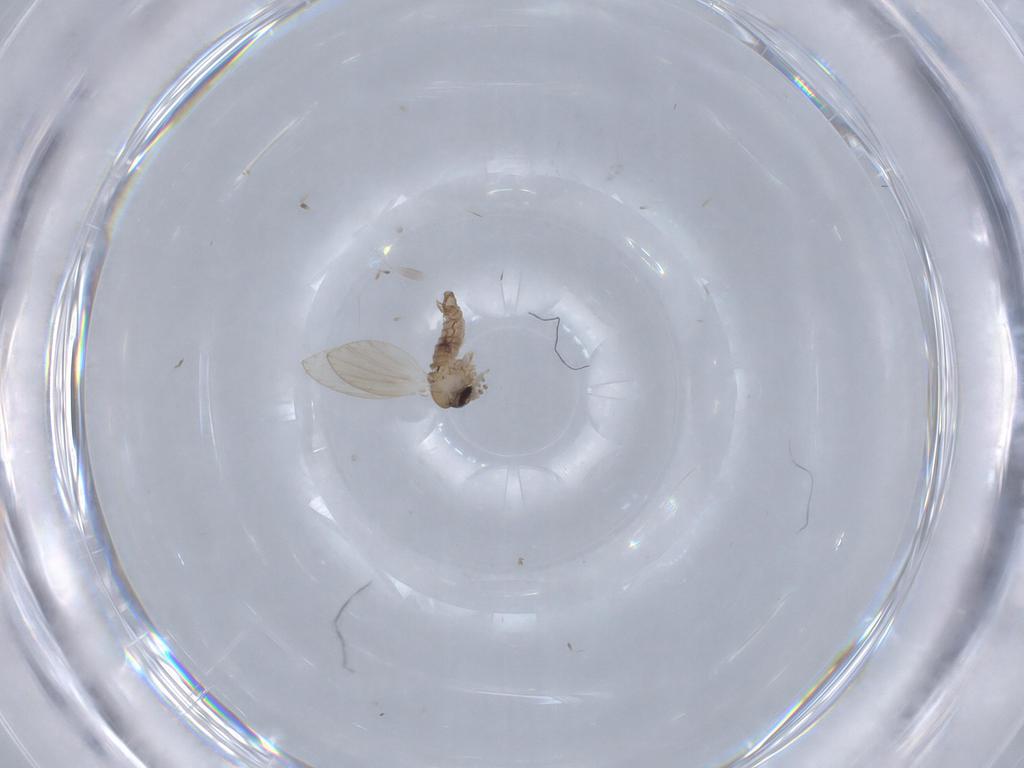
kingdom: Animalia
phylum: Arthropoda
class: Insecta
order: Diptera
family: Psychodidae
